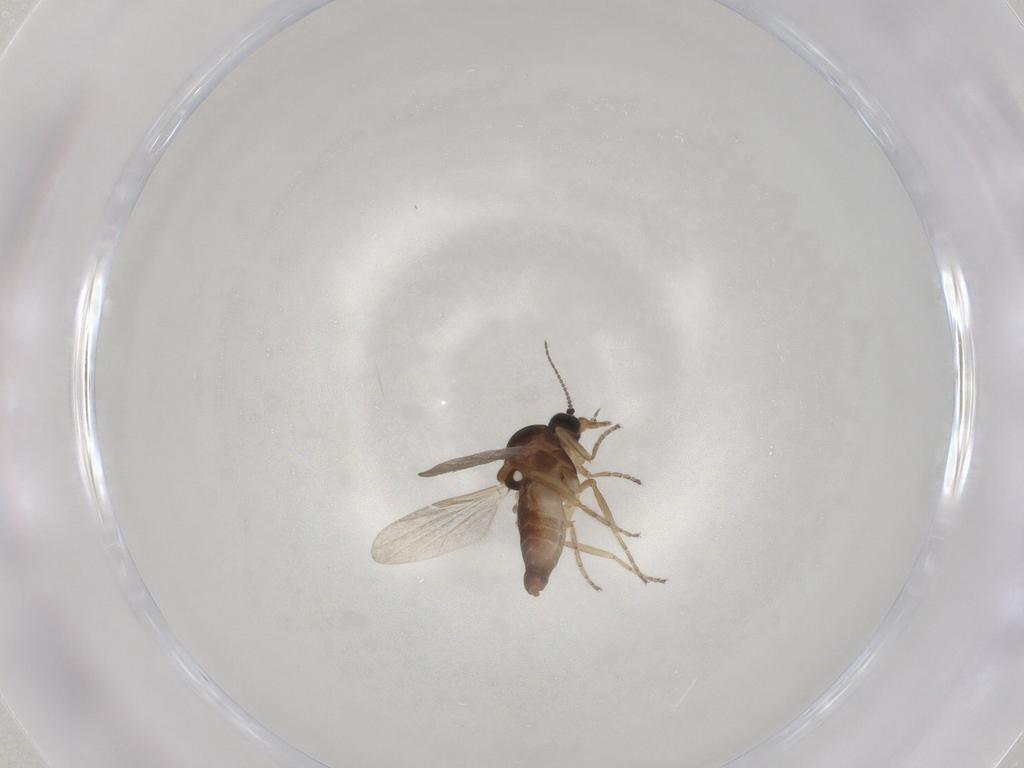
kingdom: Animalia
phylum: Arthropoda
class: Insecta
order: Diptera
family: Ceratopogonidae
